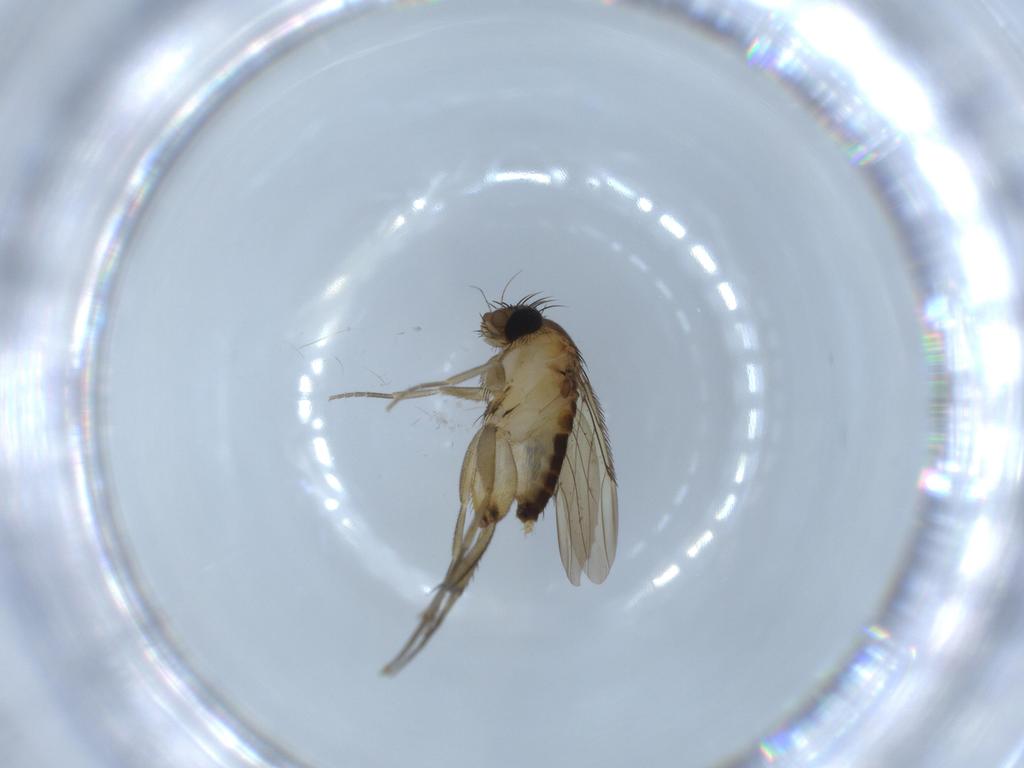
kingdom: Animalia
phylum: Arthropoda
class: Insecta
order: Diptera
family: Phoridae
